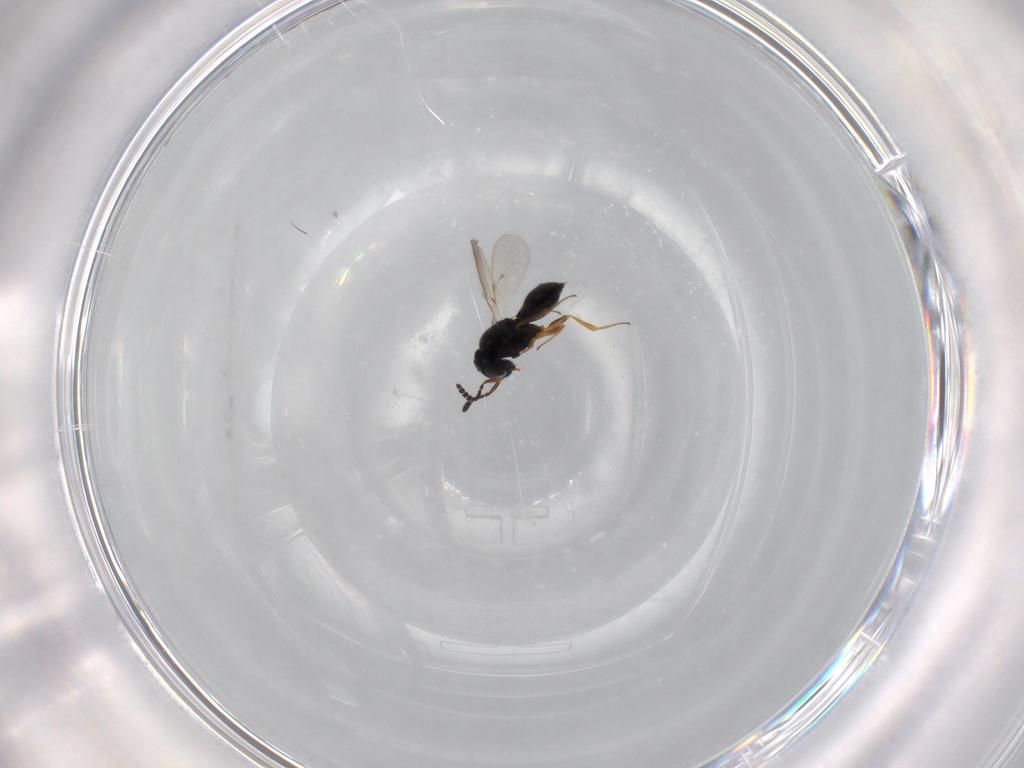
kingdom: Animalia
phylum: Arthropoda
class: Insecta
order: Hymenoptera
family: Scelionidae
